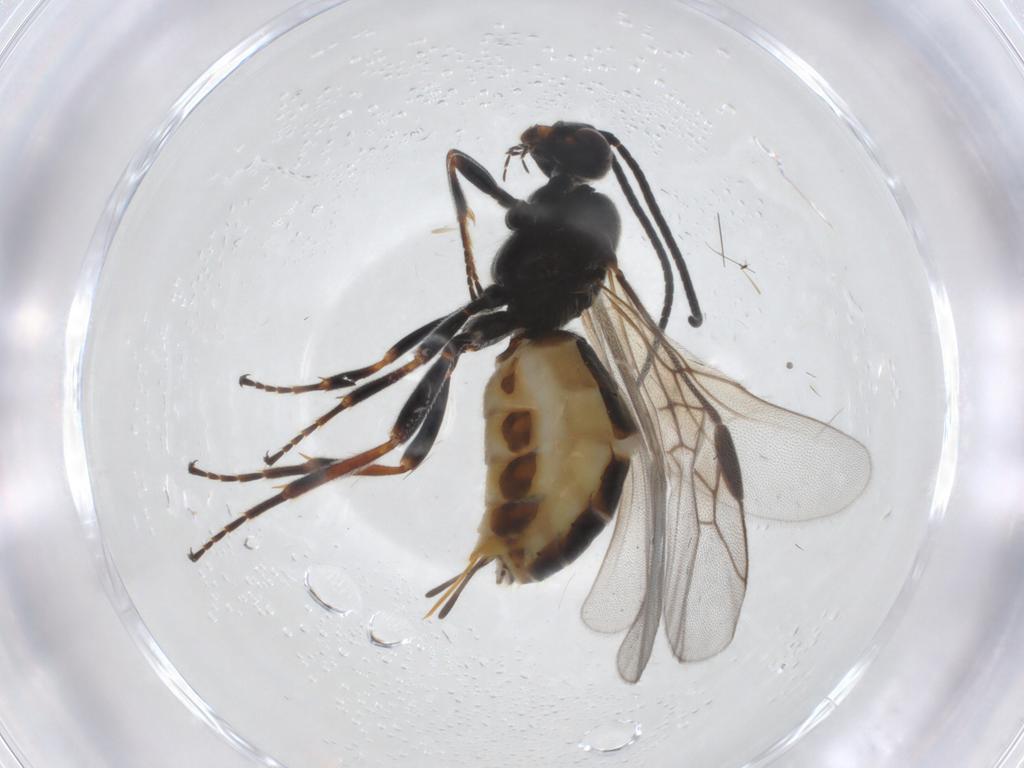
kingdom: Animalia
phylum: Arthropoda
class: Insecta
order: Hymenoptera
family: Braconidae
